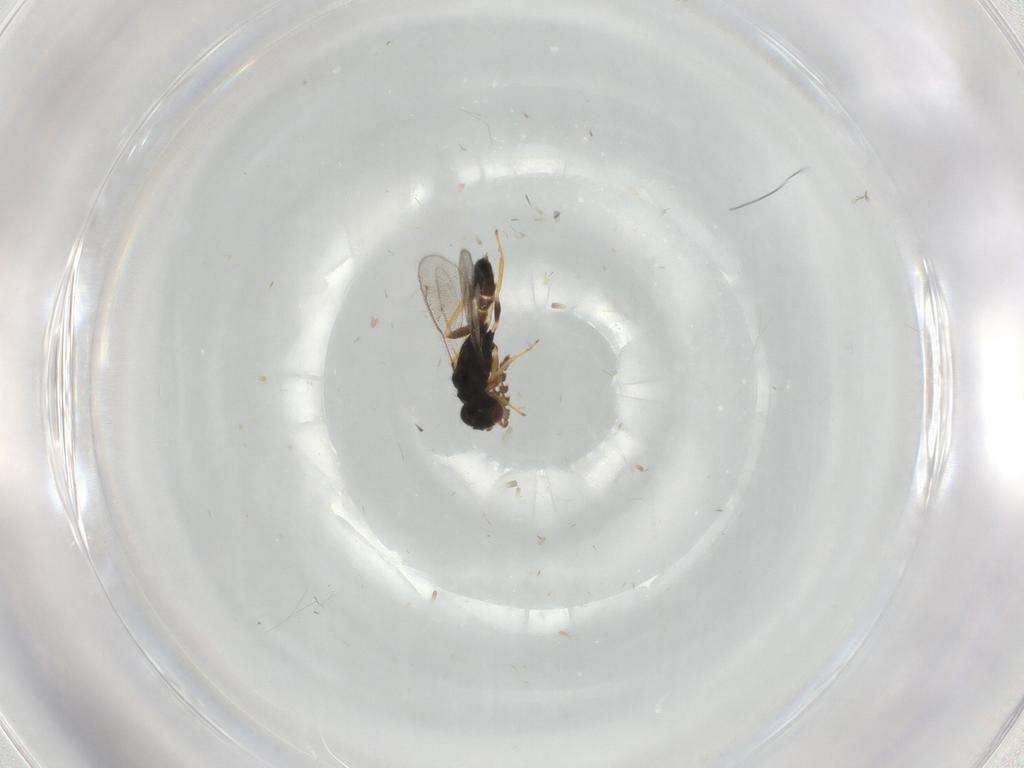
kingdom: Animalia
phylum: Arthropoda
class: Insecta
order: Hymenoptera
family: Eulophidae
